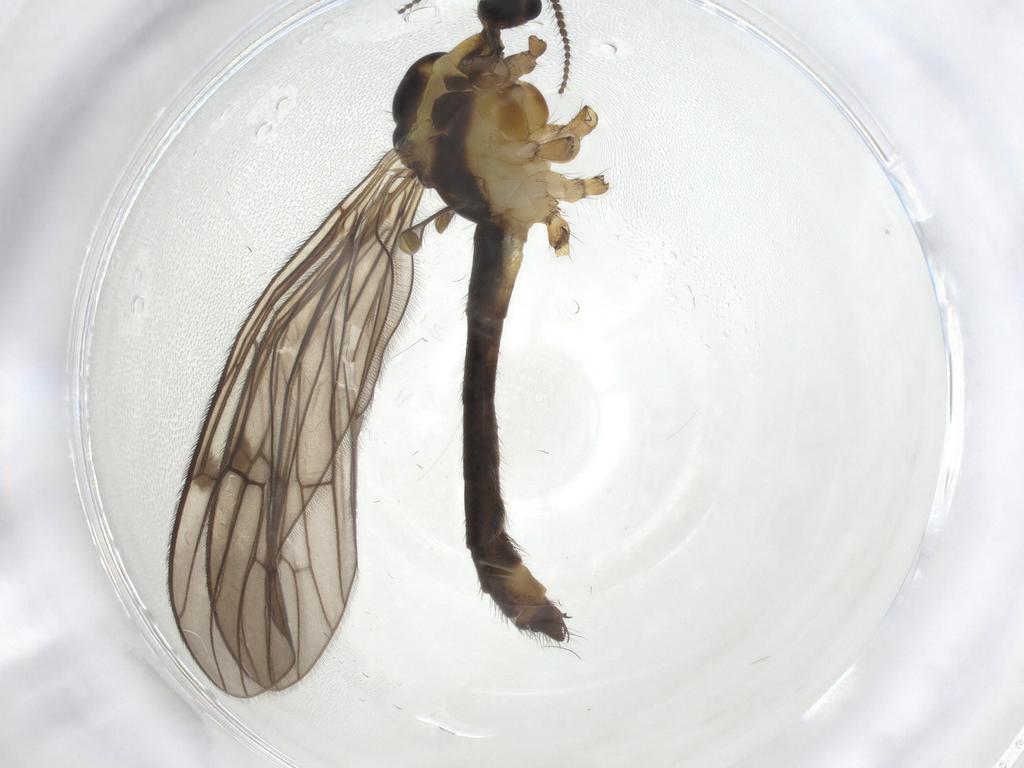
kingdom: Animalia
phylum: Arthropoda
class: Insecta
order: Diptera
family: Limoniidae
